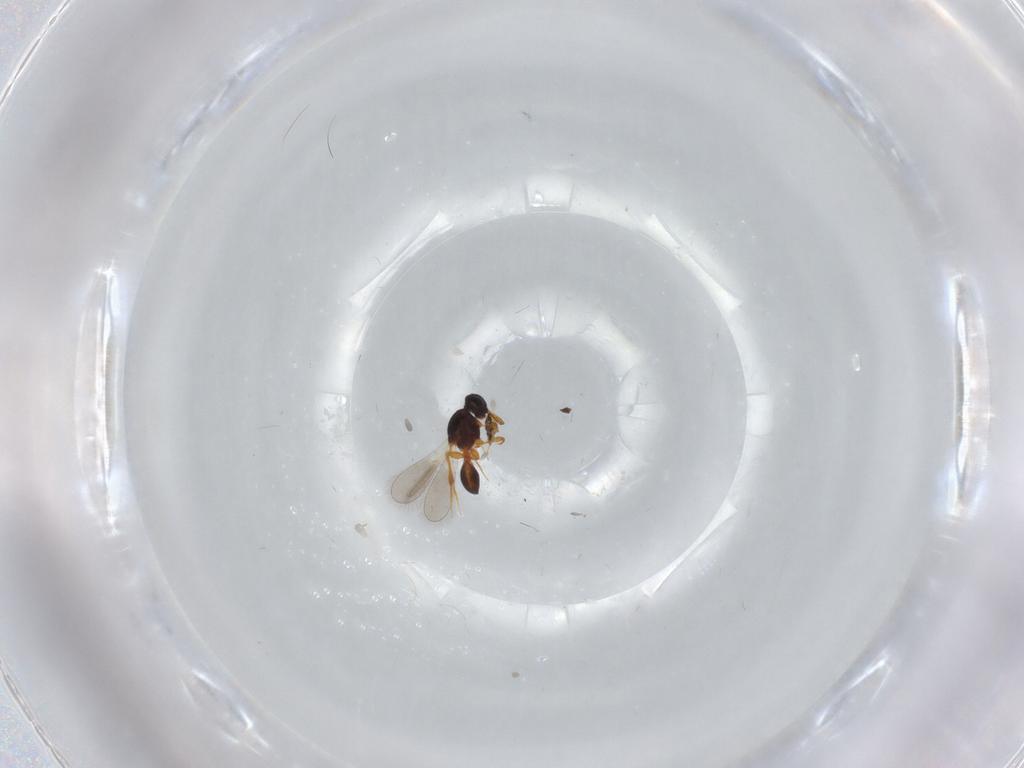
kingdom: Animalia
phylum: Arthropoda
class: Insecta
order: Hymenoptera
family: Platygastridae
